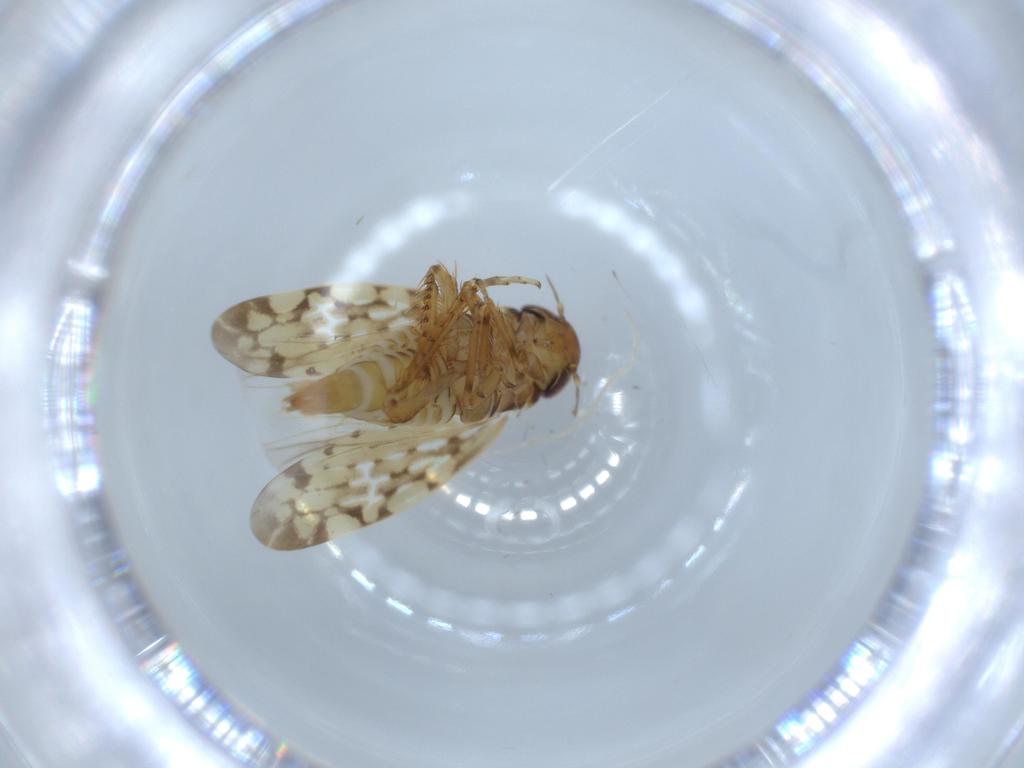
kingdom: Animalia
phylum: Arthropoda
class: Insecta
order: Hemiptera
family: Cicadellidae
